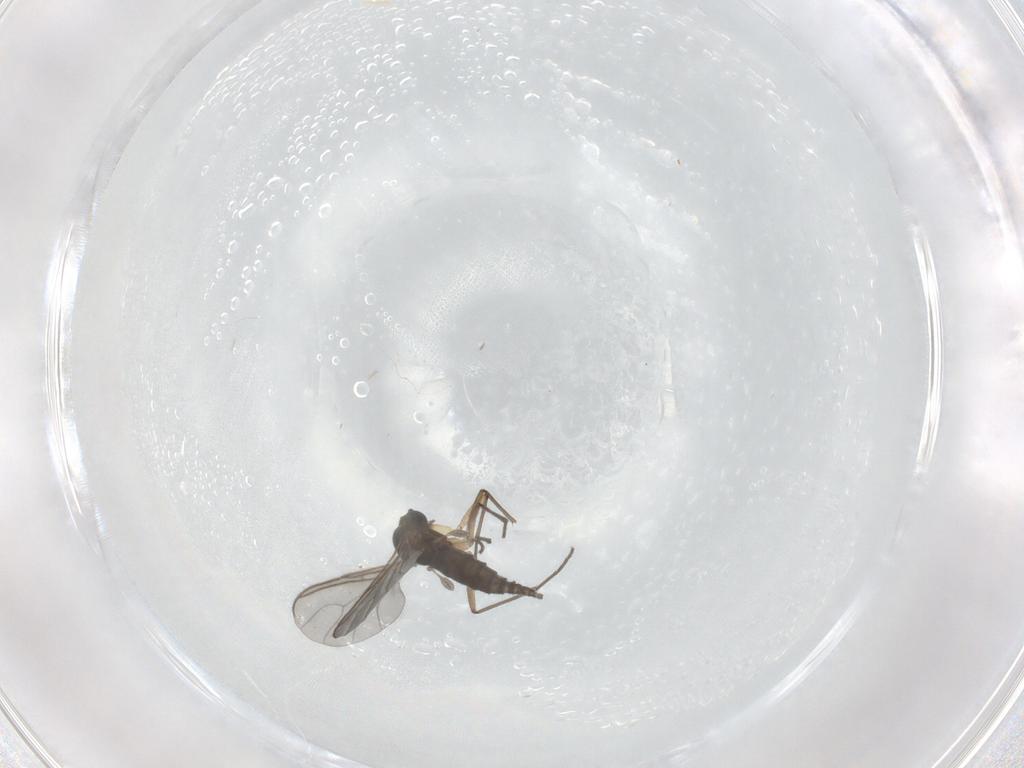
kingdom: Animalia
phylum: Arthropoda
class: Insecta
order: Diptera
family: Sciaridae
